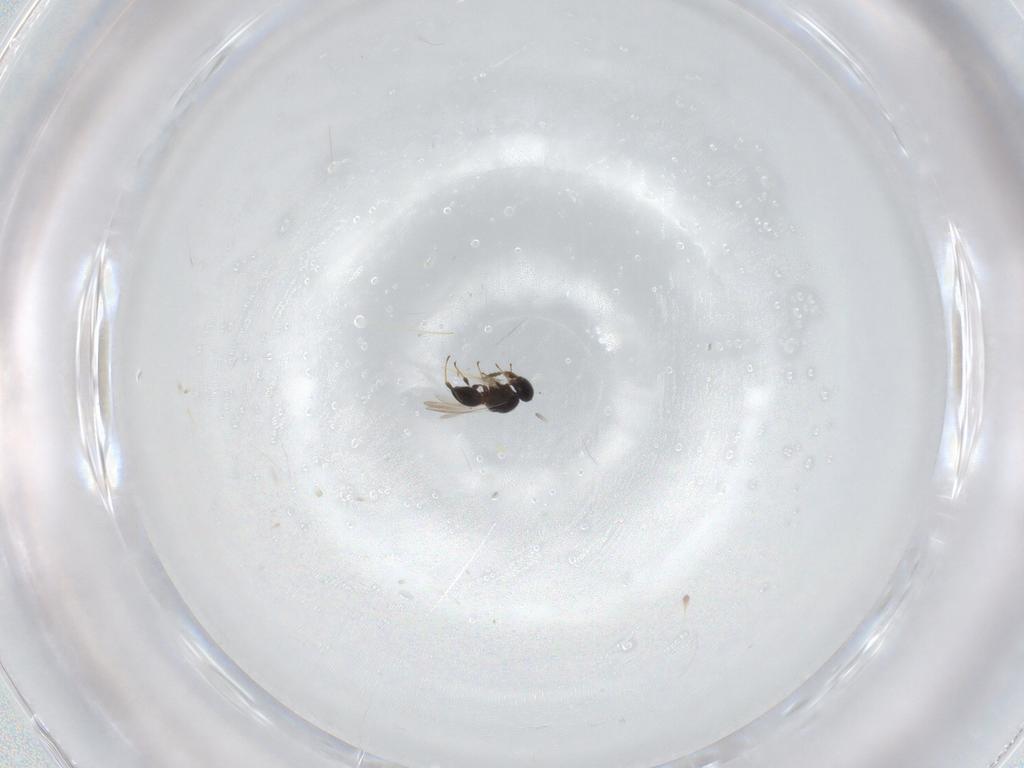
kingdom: Animalia
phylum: Arthropoda
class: Insecta
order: Hymenoptera
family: Platygastridae
